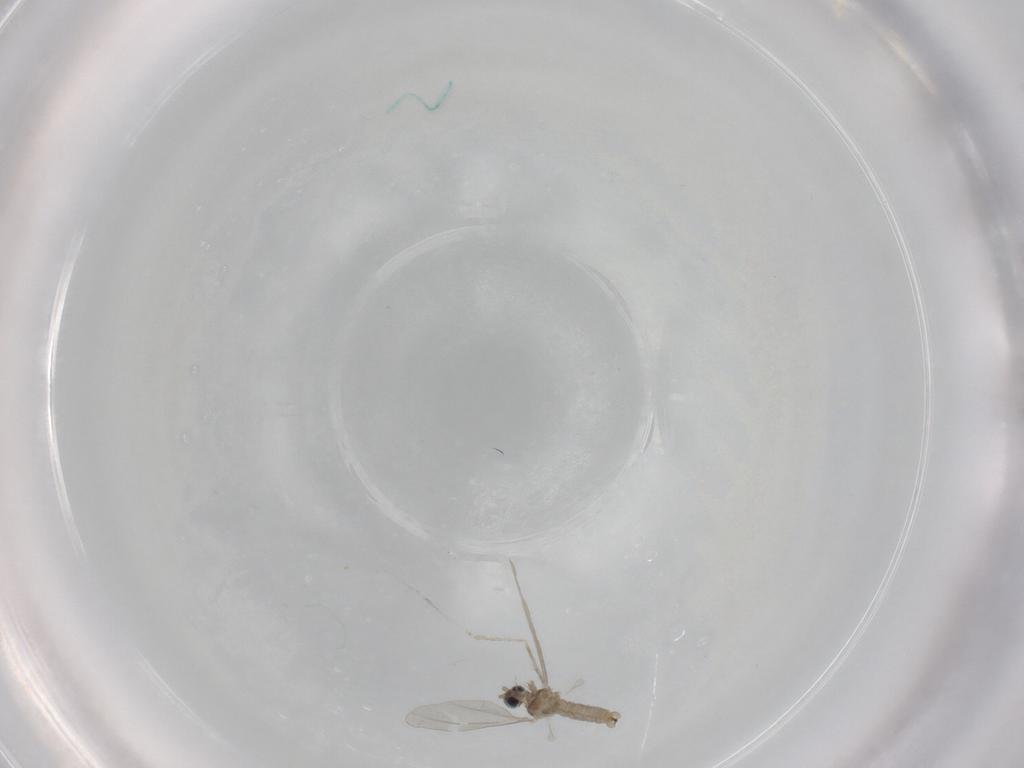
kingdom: Animalia
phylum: Arthropoda
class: Insecta
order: Diptera
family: Cecidomyiidae
